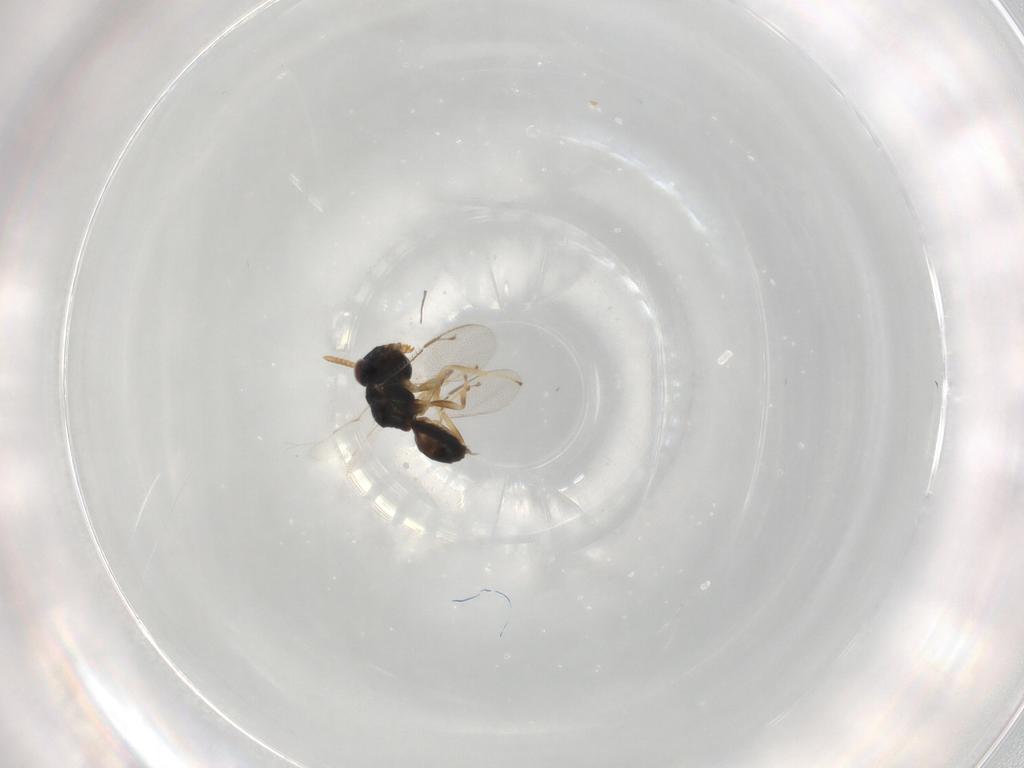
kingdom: Animalia
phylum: Arthropoda
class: Insecta
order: Hymenoptera
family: Pteromalidae
